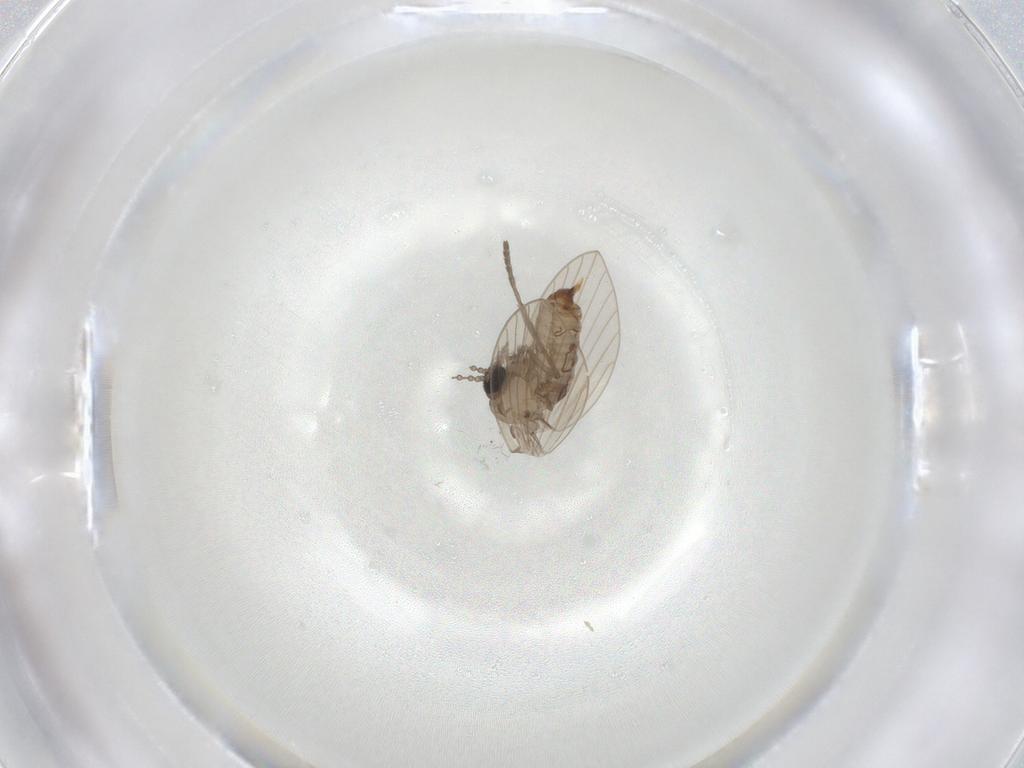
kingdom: Animalia
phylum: Arthropoda
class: Insecta
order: Diptera
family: Psychodidae
